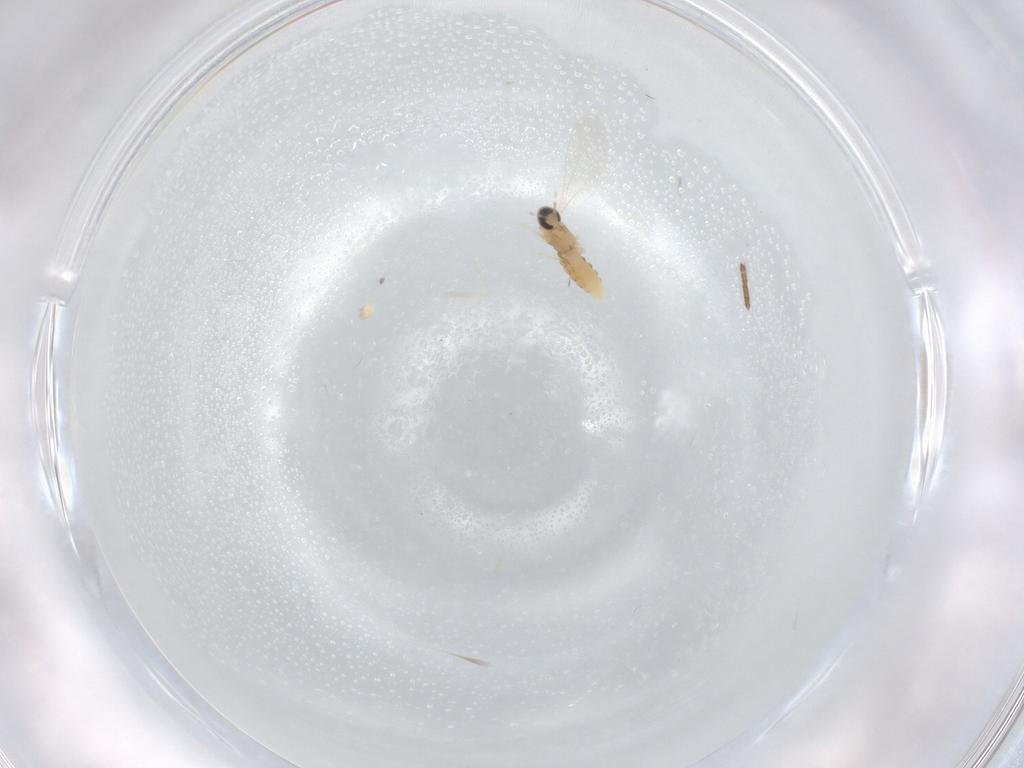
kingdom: Animalia
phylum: Arthropoda
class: Insecta
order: Diptera
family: Cecidomyiidae
